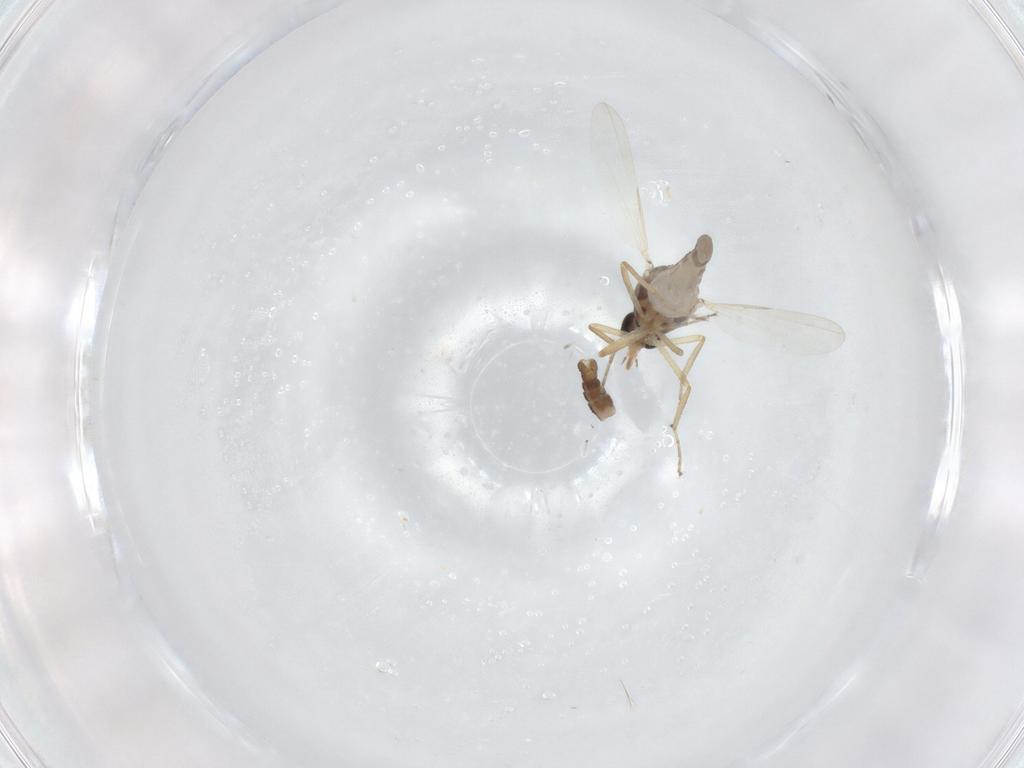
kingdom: Animalia
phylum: Arthropoda
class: Insecta
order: Diptera
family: Sciaridae
